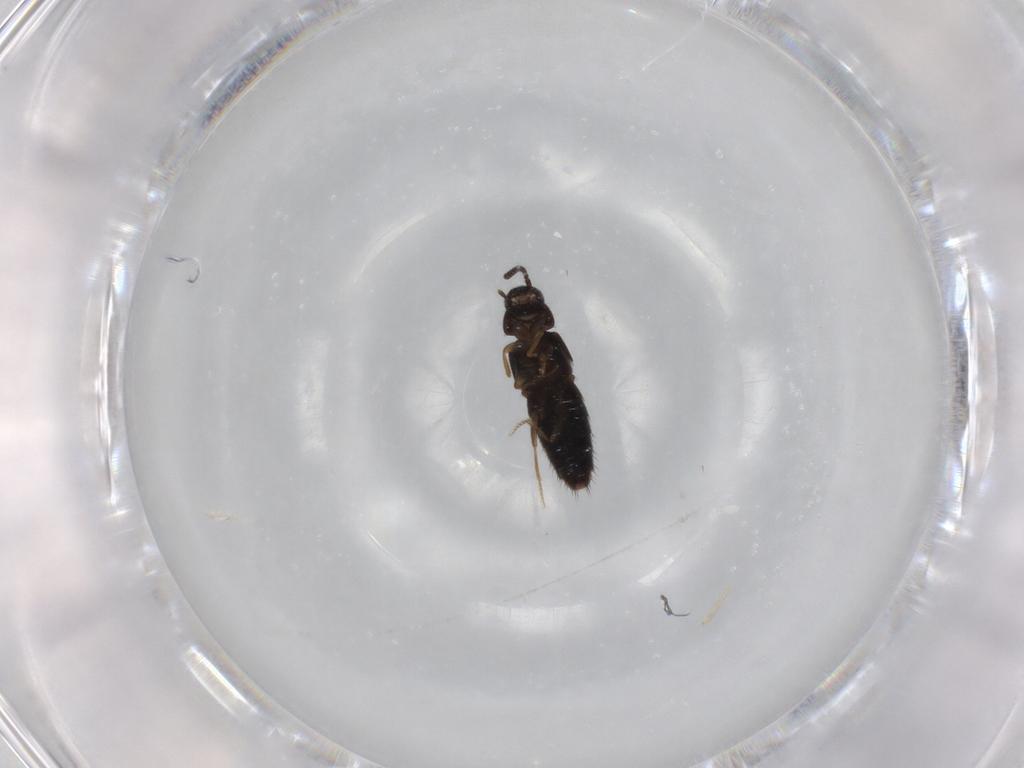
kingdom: Animalia
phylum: Arthropoda
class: Insecta
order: Coleoptera
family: Staphylinidae
